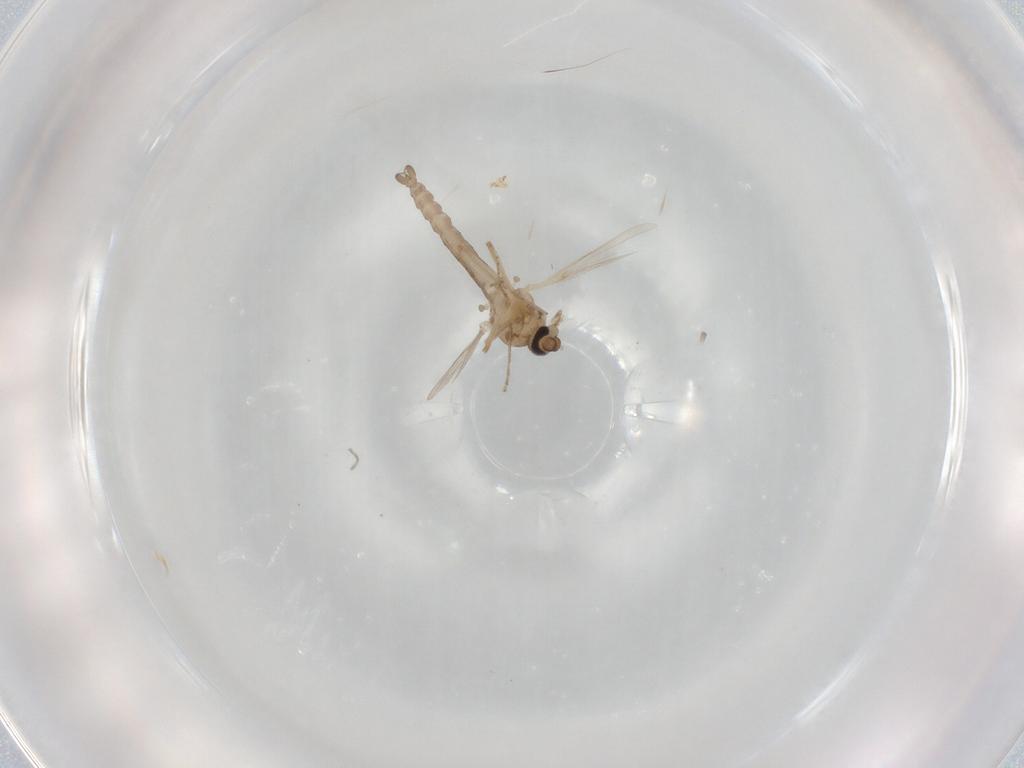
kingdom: Animalia
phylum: Arthropoda
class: Insecta
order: Diptera
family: Ceratopogonidae
